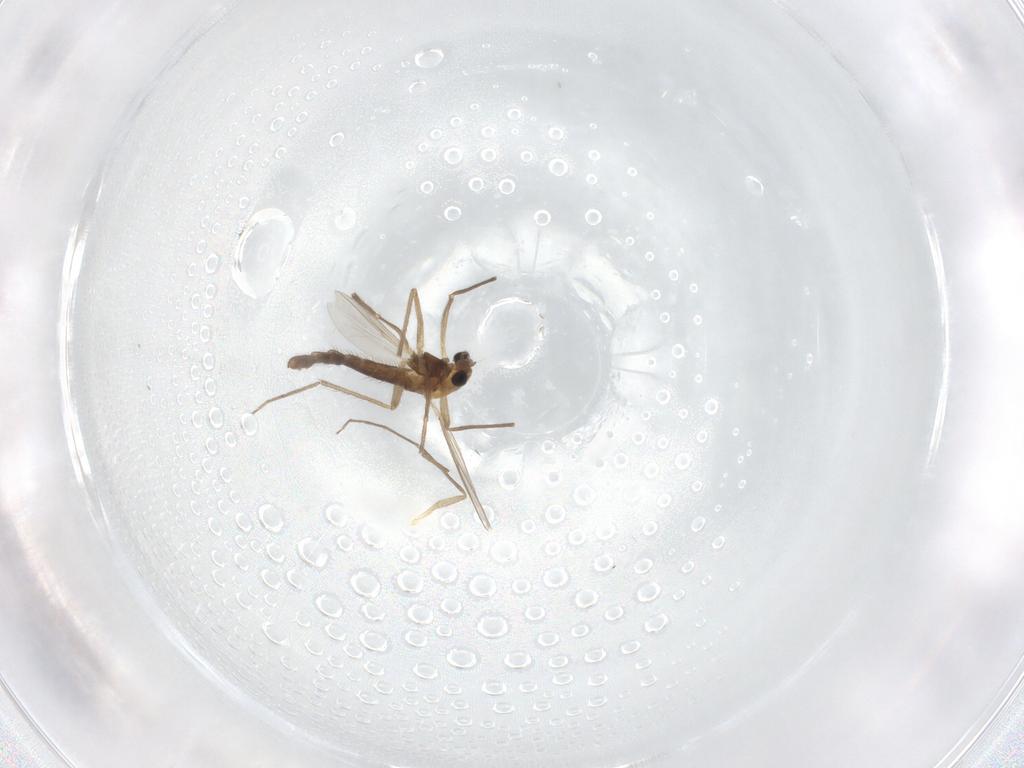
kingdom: Animalia
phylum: Arthropoda
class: Insecta
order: Diptera
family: Chironomidae
